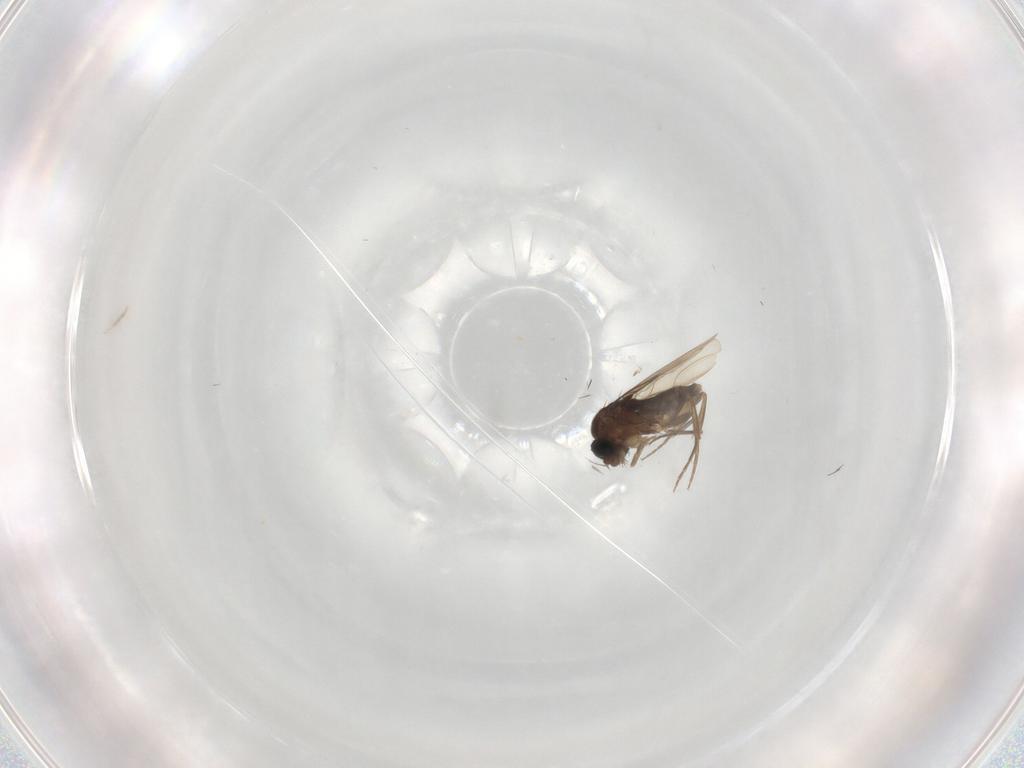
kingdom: Animalia
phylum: Arthropoda
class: Insecta
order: Diptera
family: Phoridae
